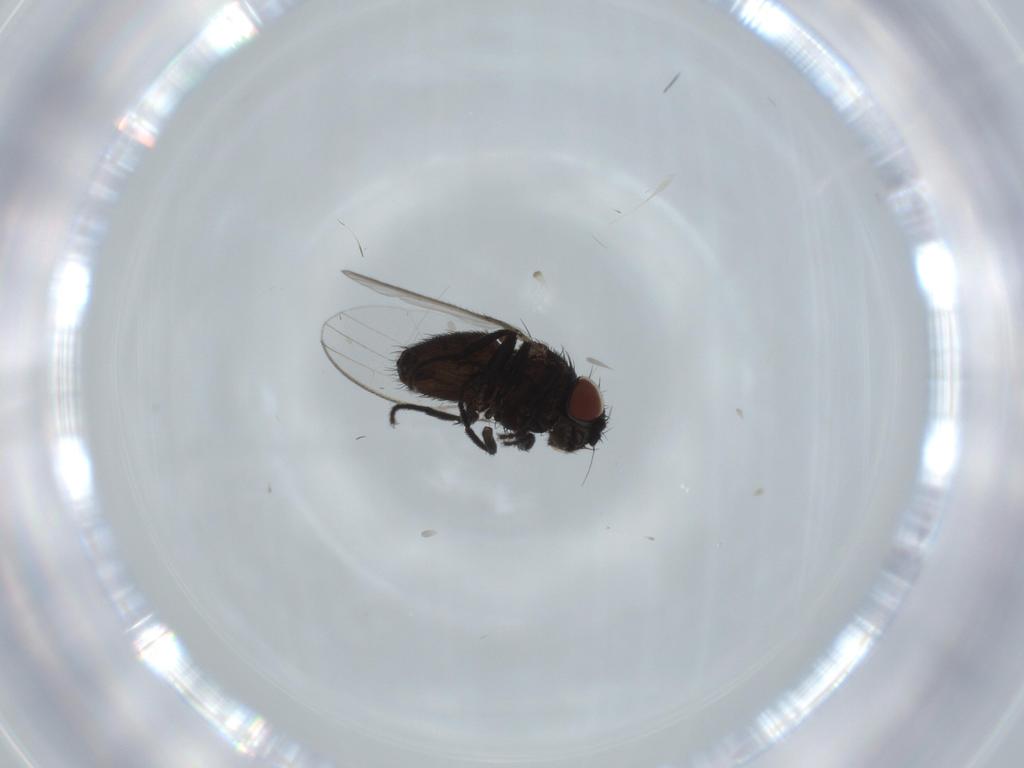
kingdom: Animalia
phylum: Arthropoda
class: Insecta
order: Diptera
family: Milichiidae
